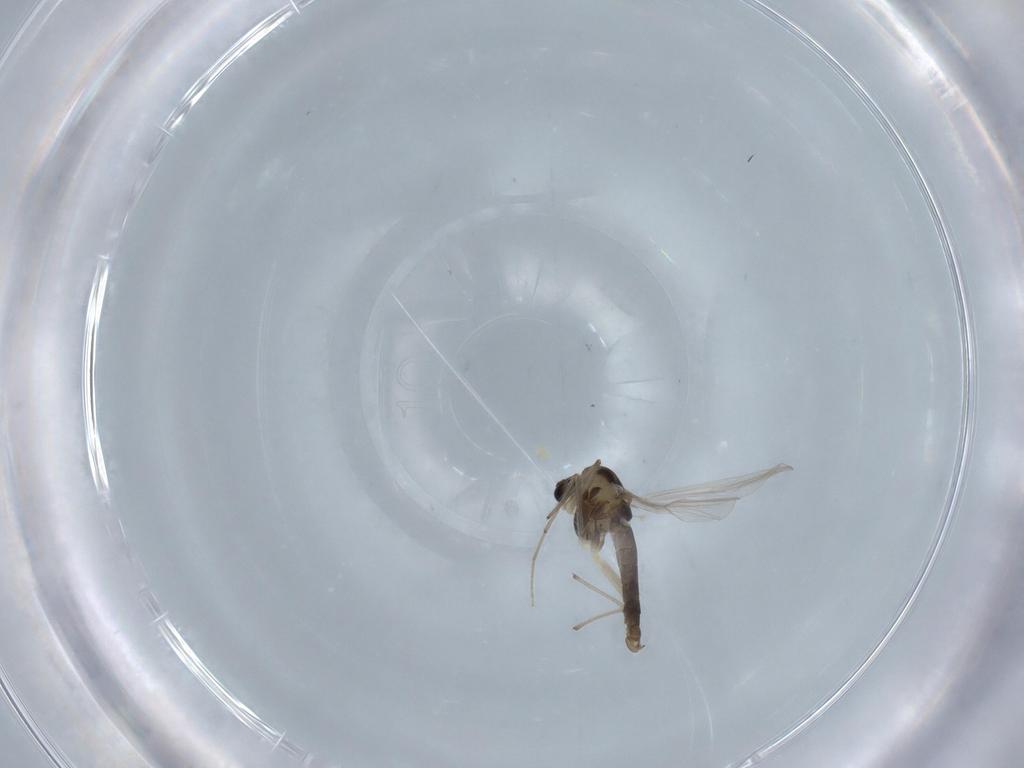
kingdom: Animalia
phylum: Arthropoda
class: Insecta
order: Diptera
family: Chironomidae
